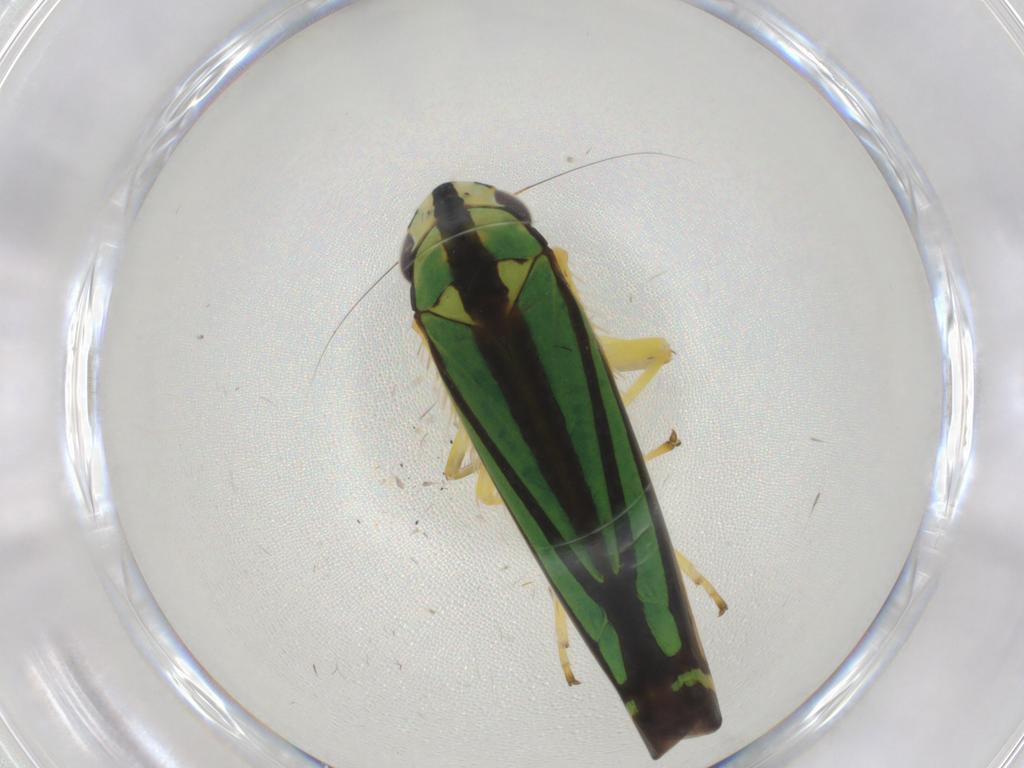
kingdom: Animalia
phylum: Arthropoda
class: Insecta
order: Hemiptera
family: Cicadellidae
